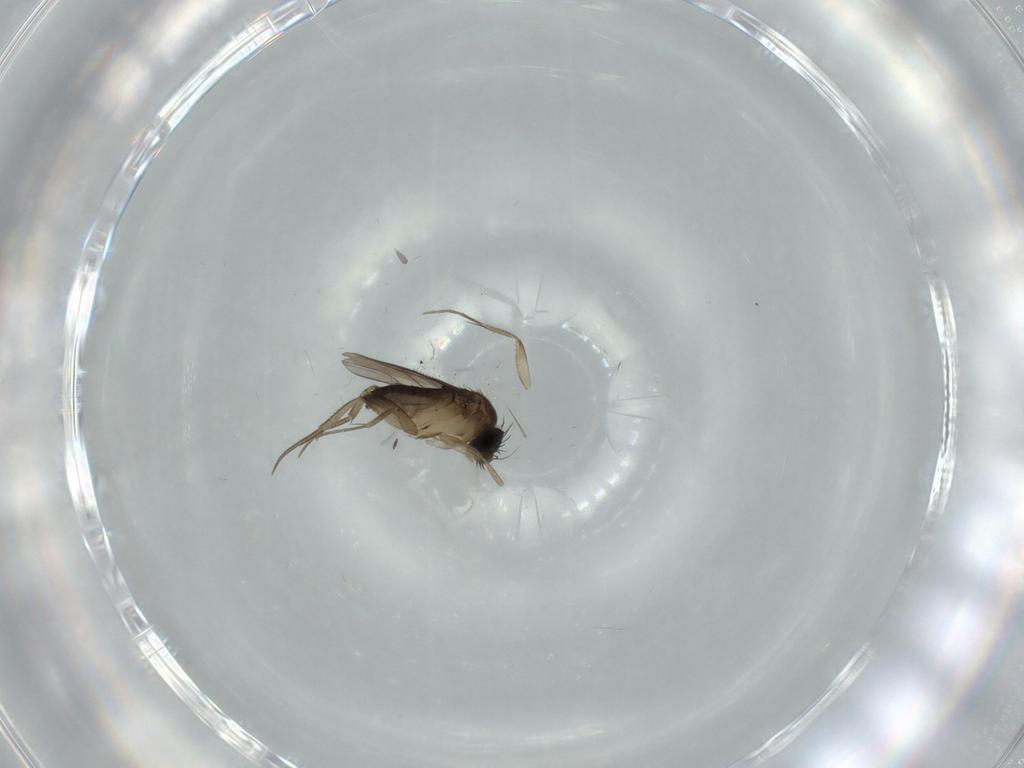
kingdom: Animalia
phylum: Arthropoda
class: Insecta
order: Diptera
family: Phoridae
